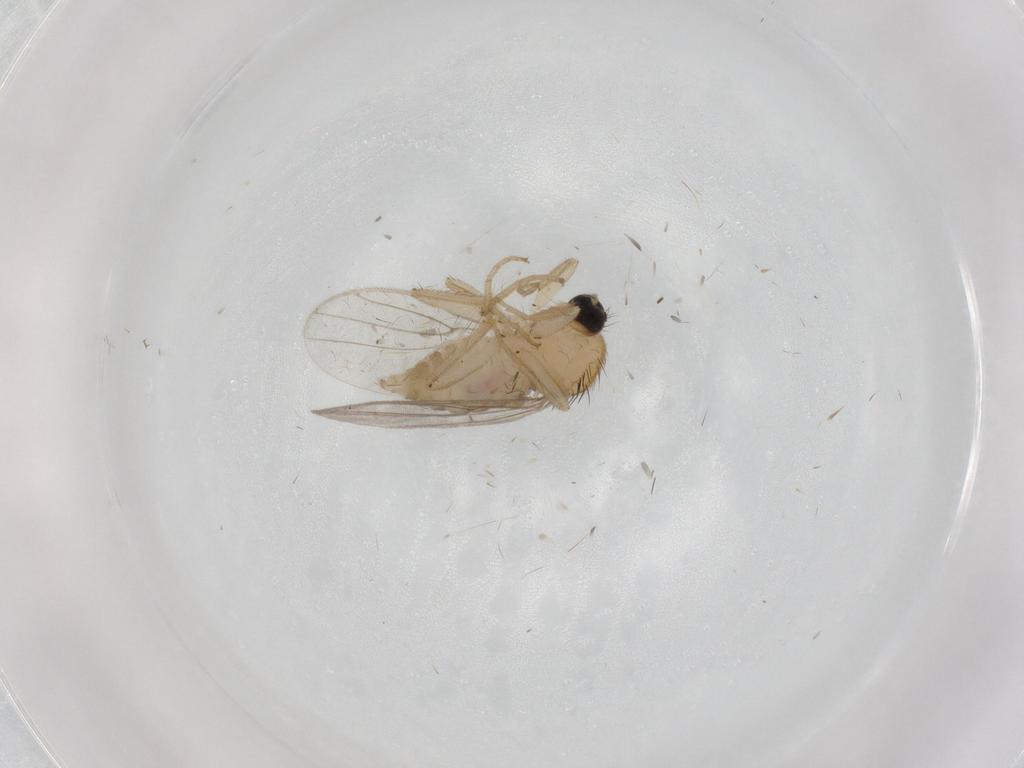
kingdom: Animalia
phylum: Arthropoda
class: Insecta
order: Diptera
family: Hybotidae
